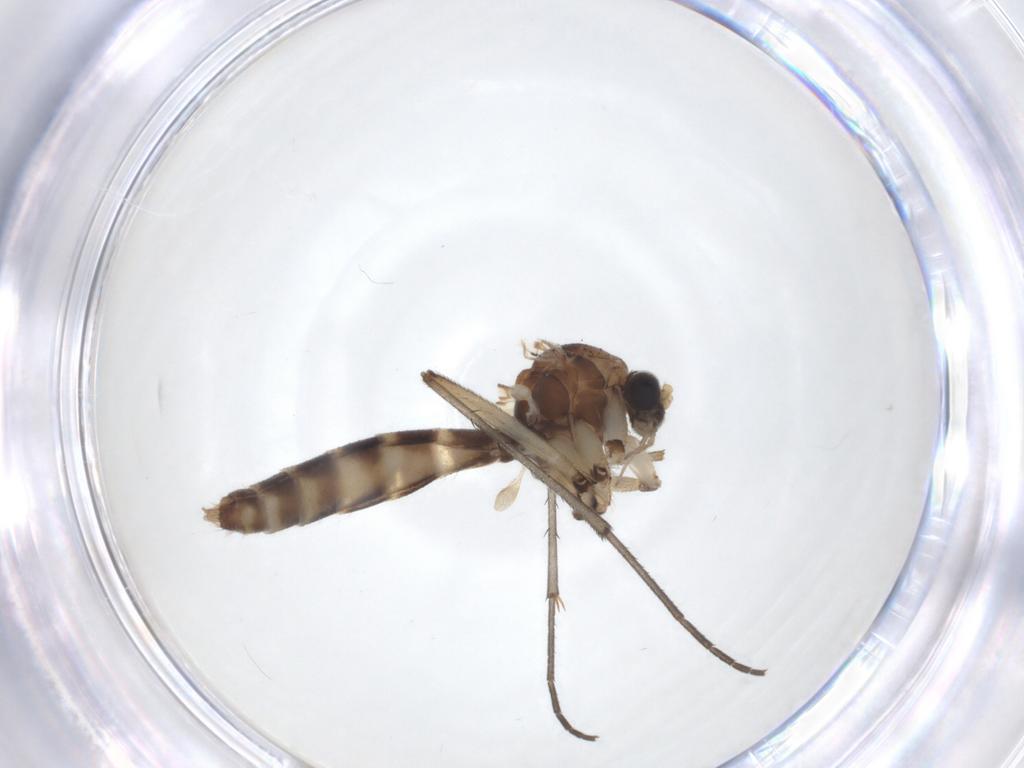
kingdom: Animalia
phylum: Arthropoda
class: Insecta
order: Diptera
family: Mycetophilidae
